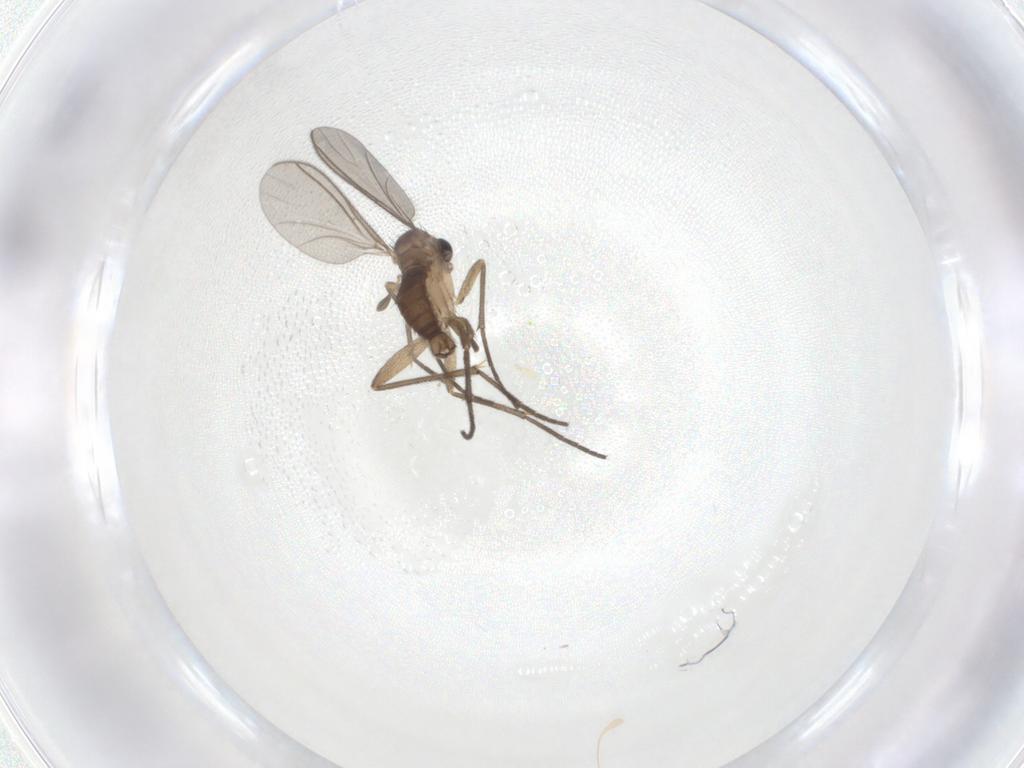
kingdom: Animalia
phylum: Arthropoda
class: Insecta
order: Diptera
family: Sciaridae
